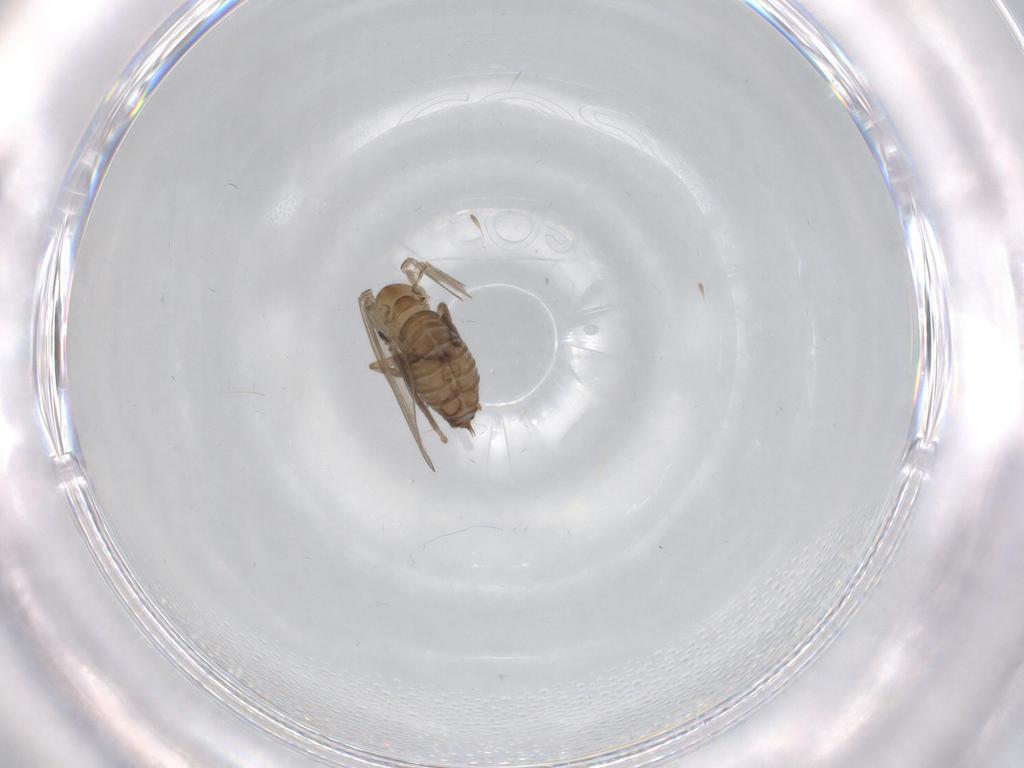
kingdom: Animalia
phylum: Arthropoda
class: Insecta
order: Diptera
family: Psychodidae
